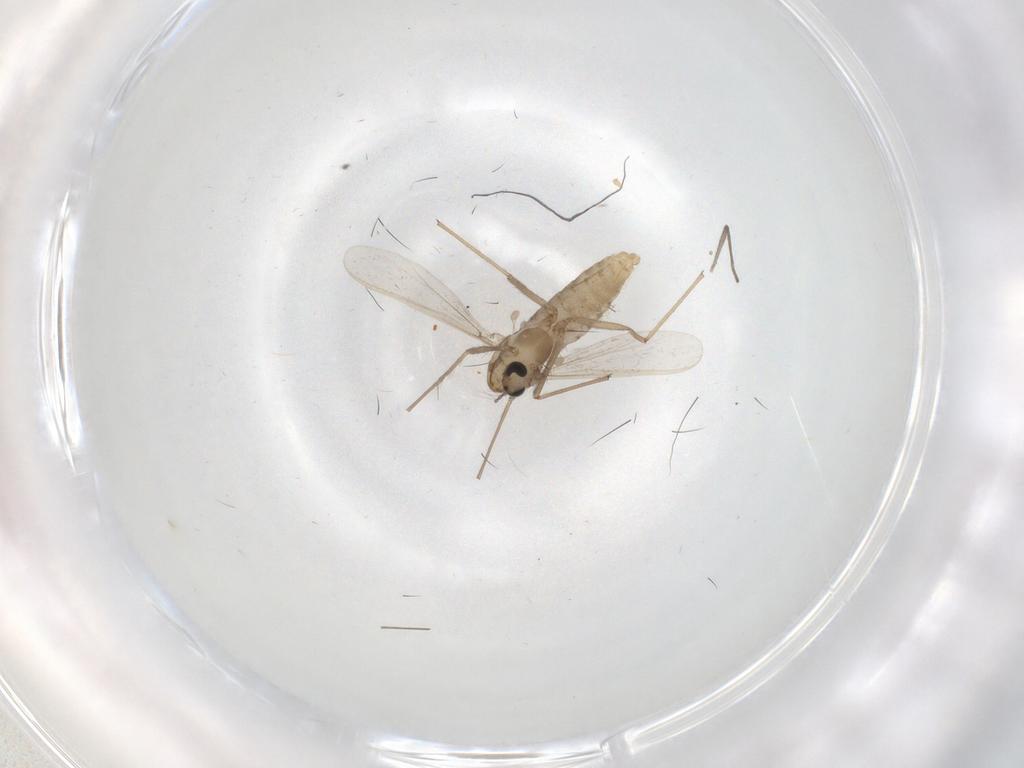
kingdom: Animalia
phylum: Arthropoda
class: Insecta
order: Diptera
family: Chironomidae
